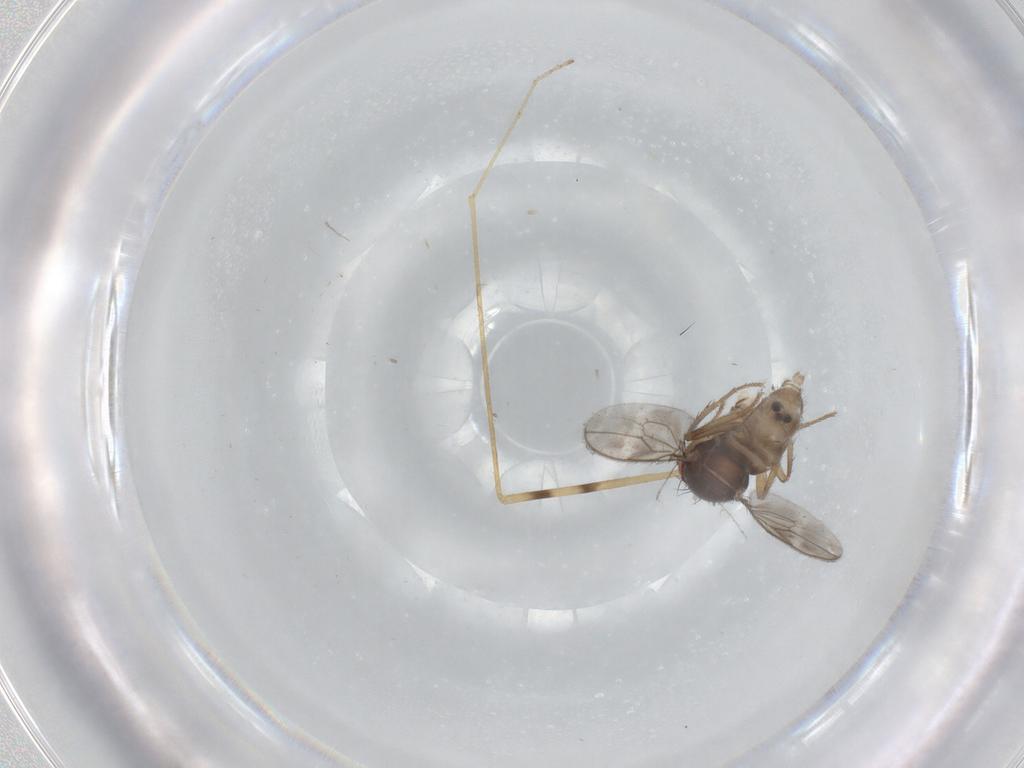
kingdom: Animalia
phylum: Arthropoda
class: Insecta
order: Diptera
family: Sphaeroceridae
